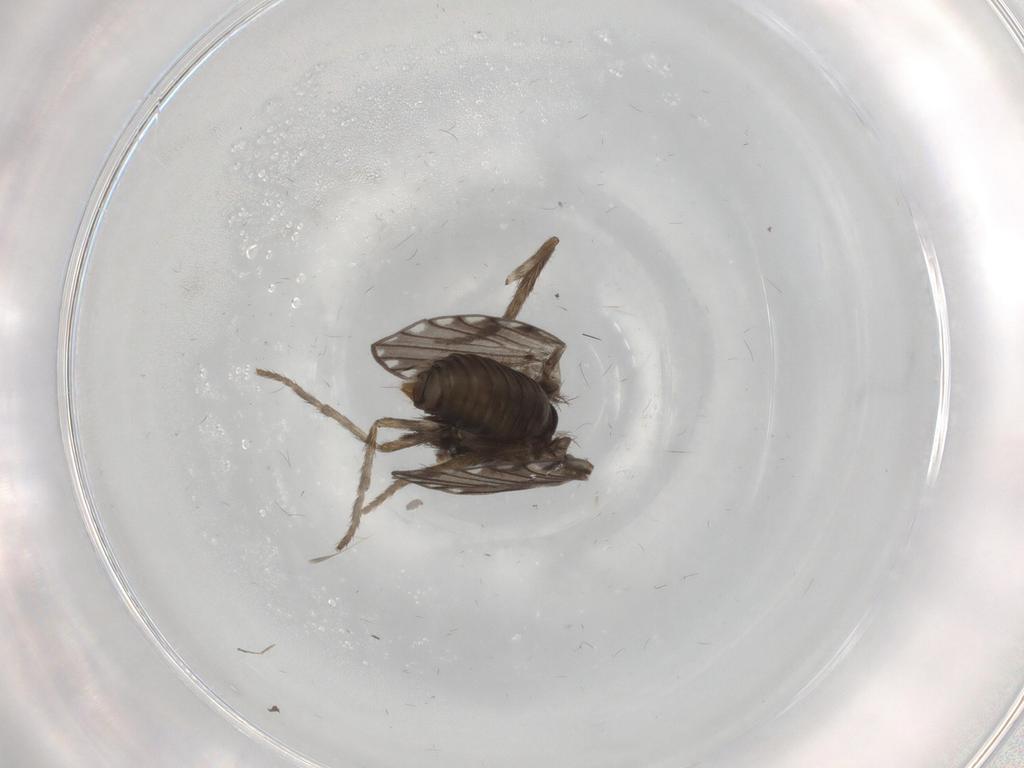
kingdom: Animalia
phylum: Arthropoda
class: Insecta
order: Diptera
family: Psychodidae
